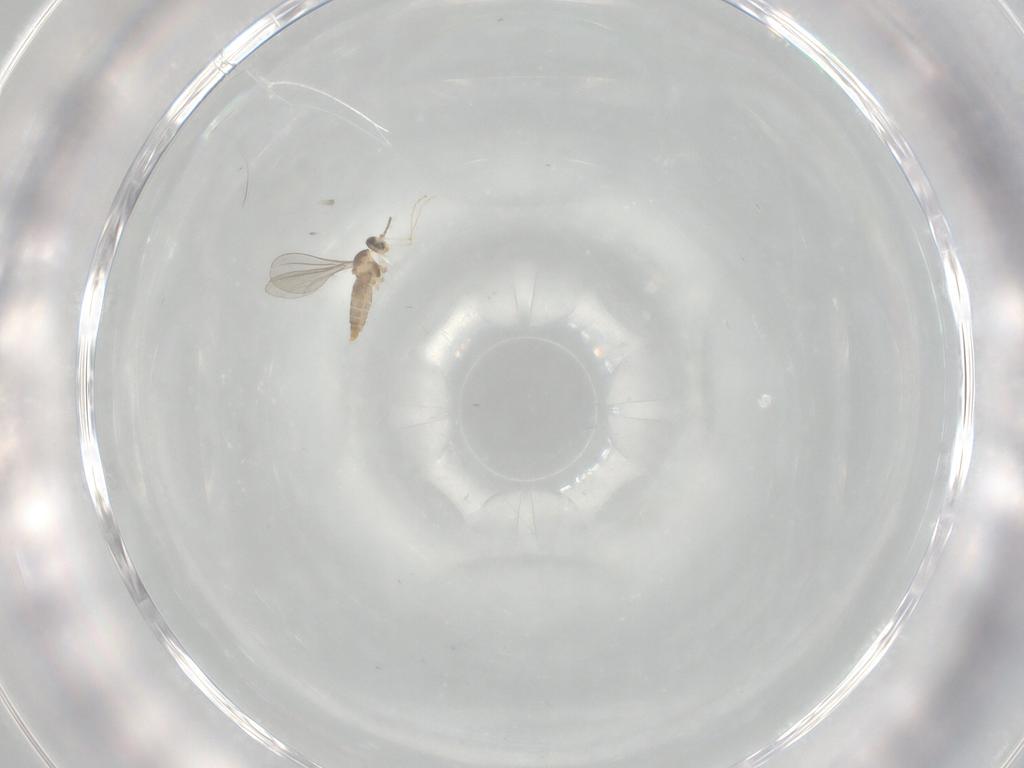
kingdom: Animalia
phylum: Arthropoda
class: Insecta
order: Diptera
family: Cecidomyiidae
